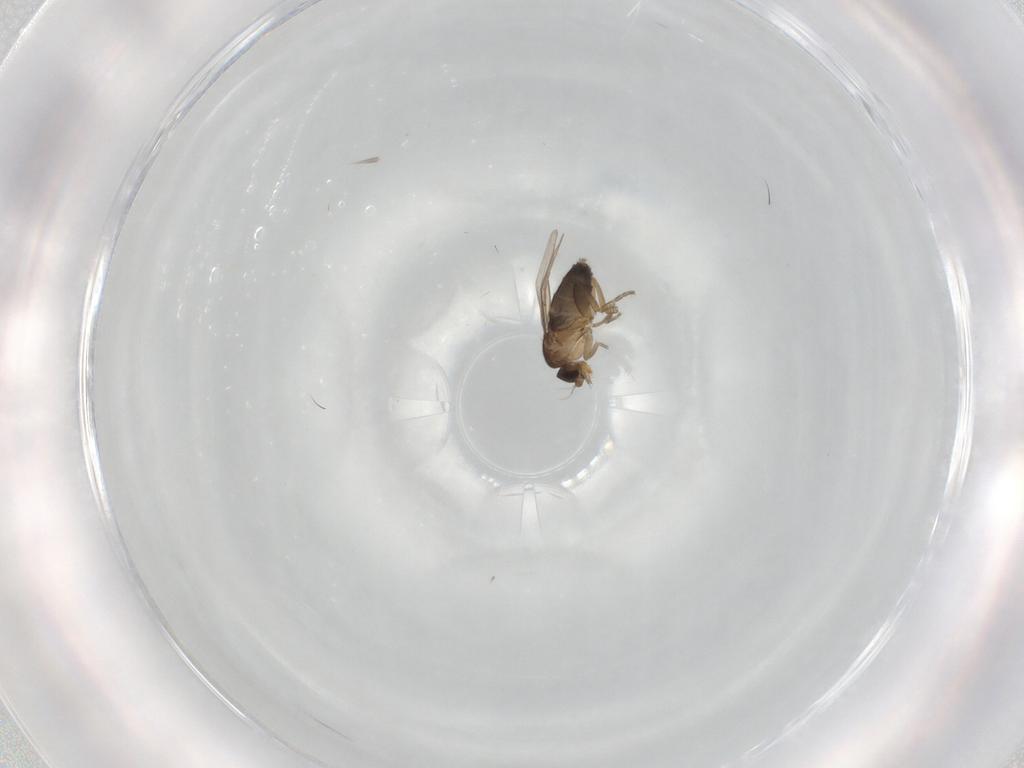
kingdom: Animalia
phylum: Arthropoda
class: Insecta
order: Diptera
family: Phoridae
